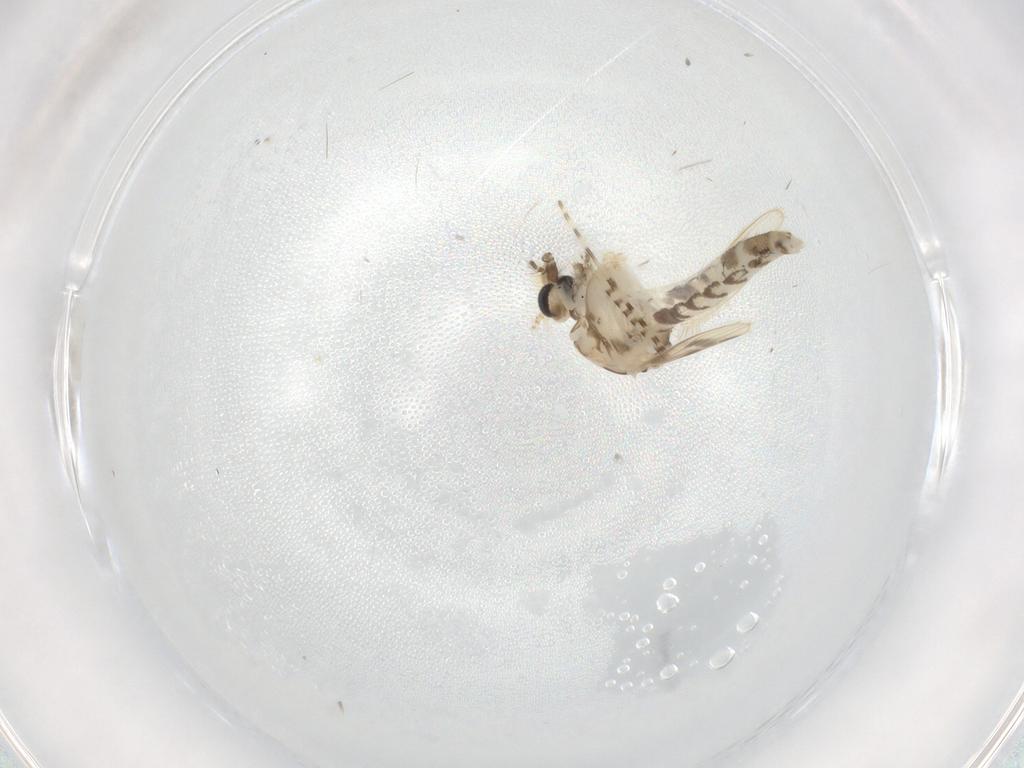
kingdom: Animalia
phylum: Arthropoda
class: Insecta
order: Diptera
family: Corethrellidae
